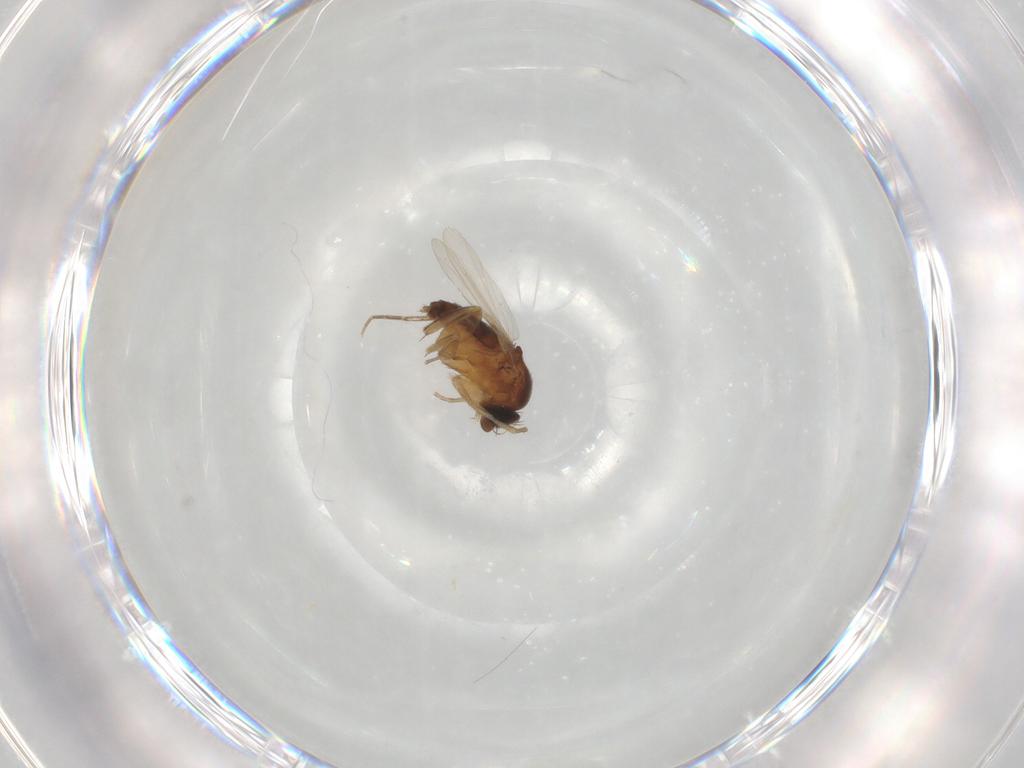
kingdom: Animalia
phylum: Arthropoda
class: Insecta
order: Diptera
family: Phoridae
